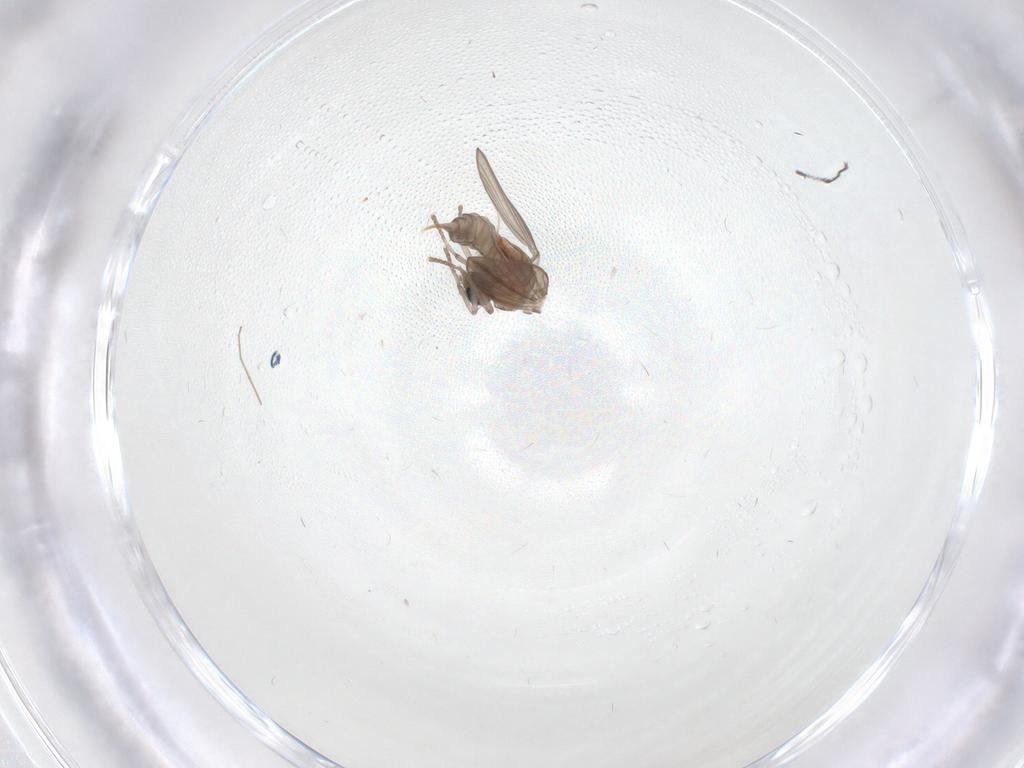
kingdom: Animalia
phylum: Arthropoda
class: Insecta
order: Diptera
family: Psychodidae
